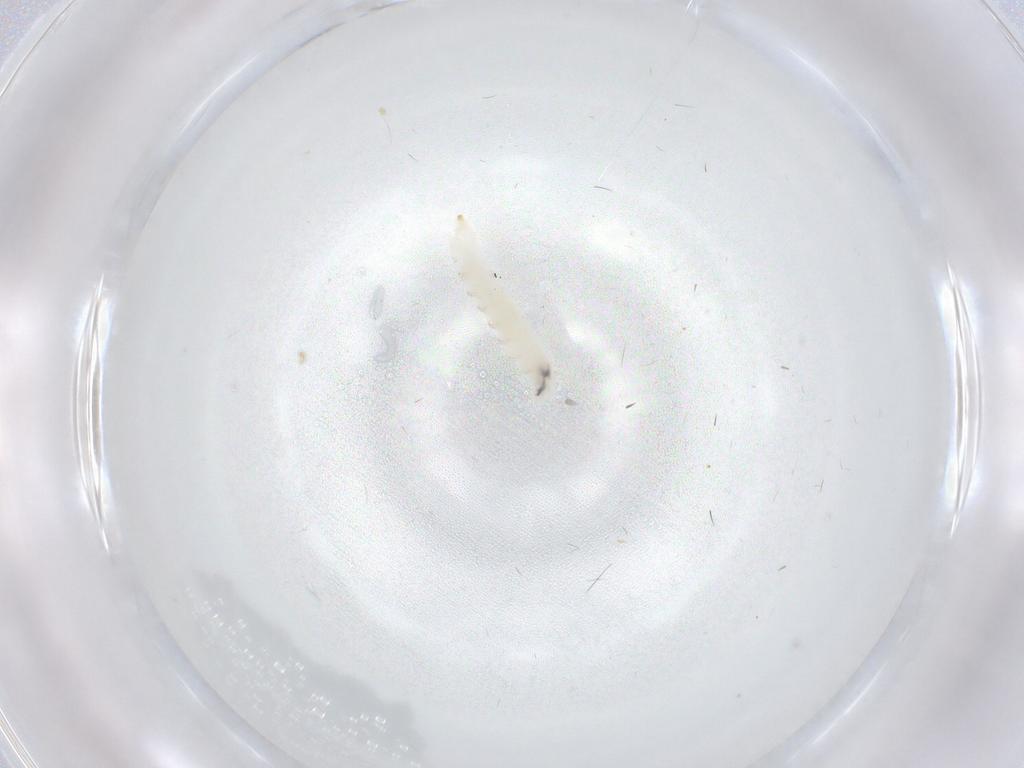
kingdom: Animalia
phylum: Arthropoda
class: Insecta
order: Diptera
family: Drosophilidae
